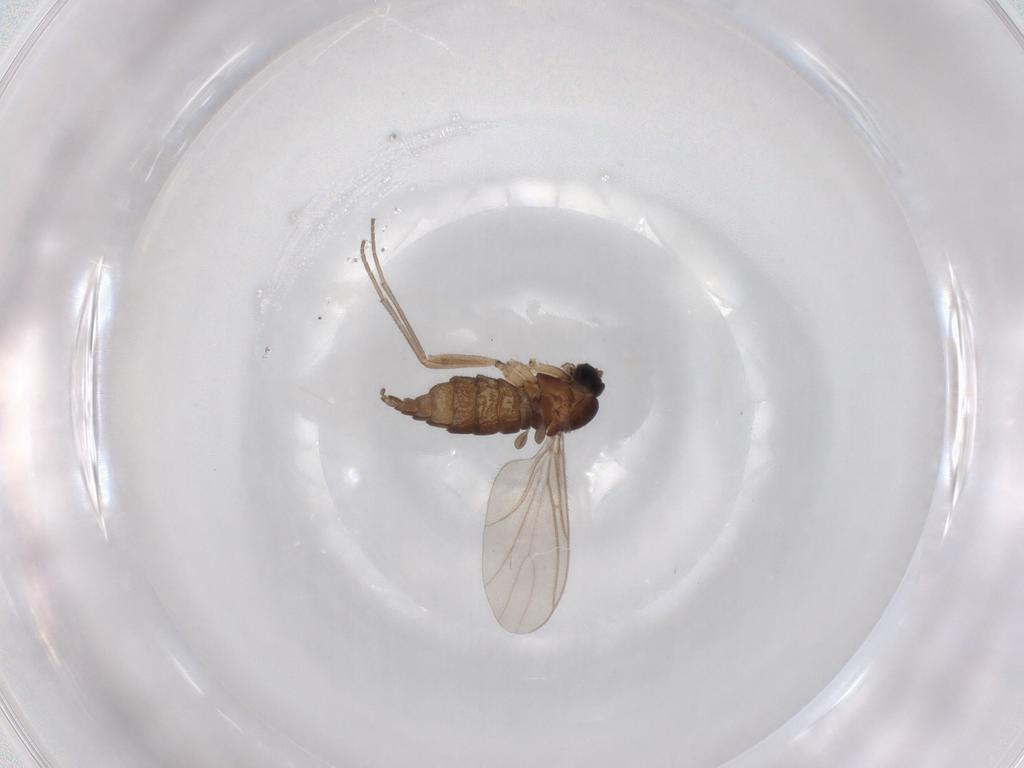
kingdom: Animalia
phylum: Arthropoda
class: Insecta
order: Diptera
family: Sciaridae
